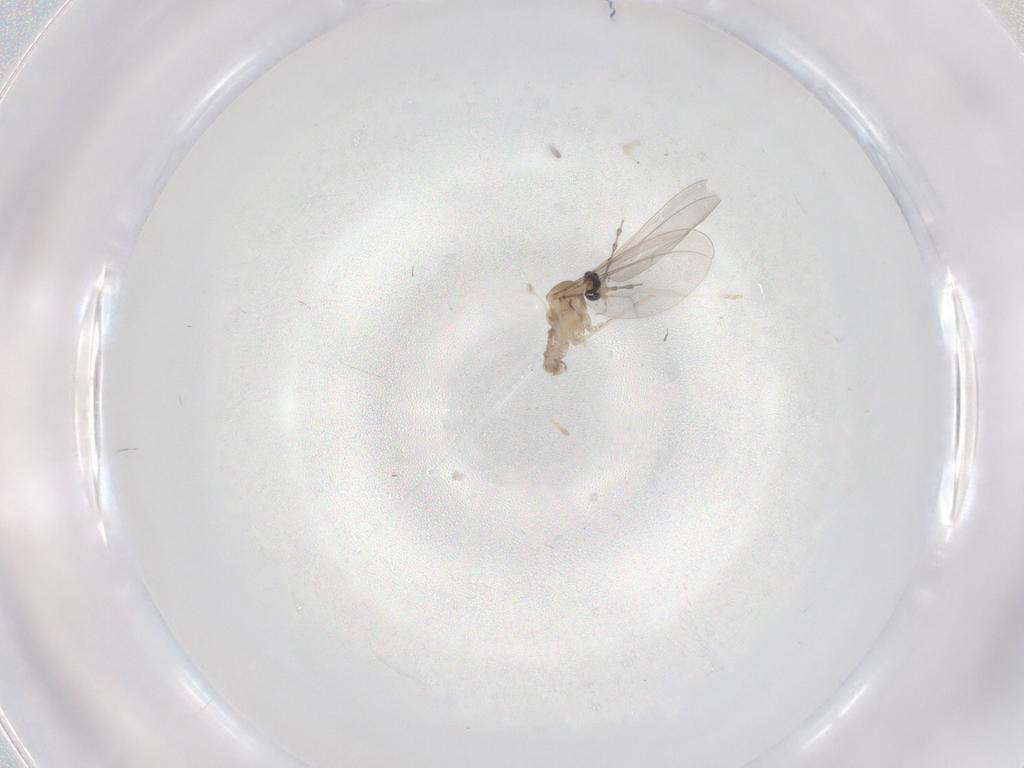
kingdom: Animalia
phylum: Arthropoda
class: Insecta
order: Diptera
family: Cecidomyiidae
